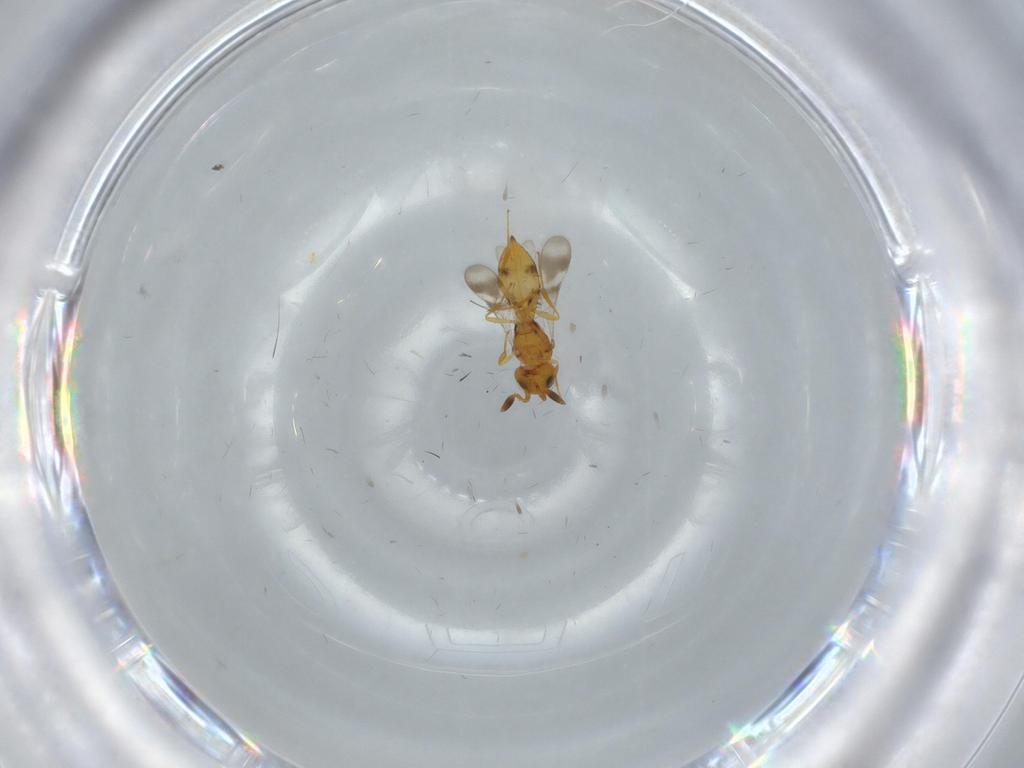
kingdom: Animalia
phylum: Arthropoda
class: Insecta
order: Hymenoptera
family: Scelionidae
